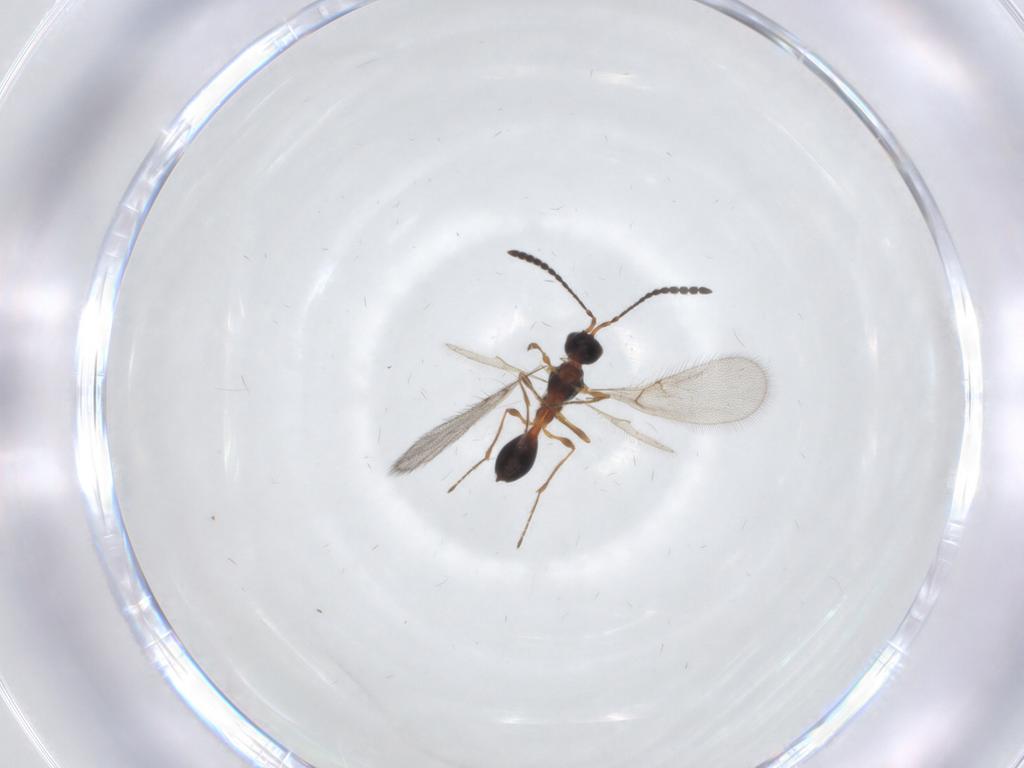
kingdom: Animalia
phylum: Arthropoda
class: Insecta
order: Hymenoptera
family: Diapriidae
